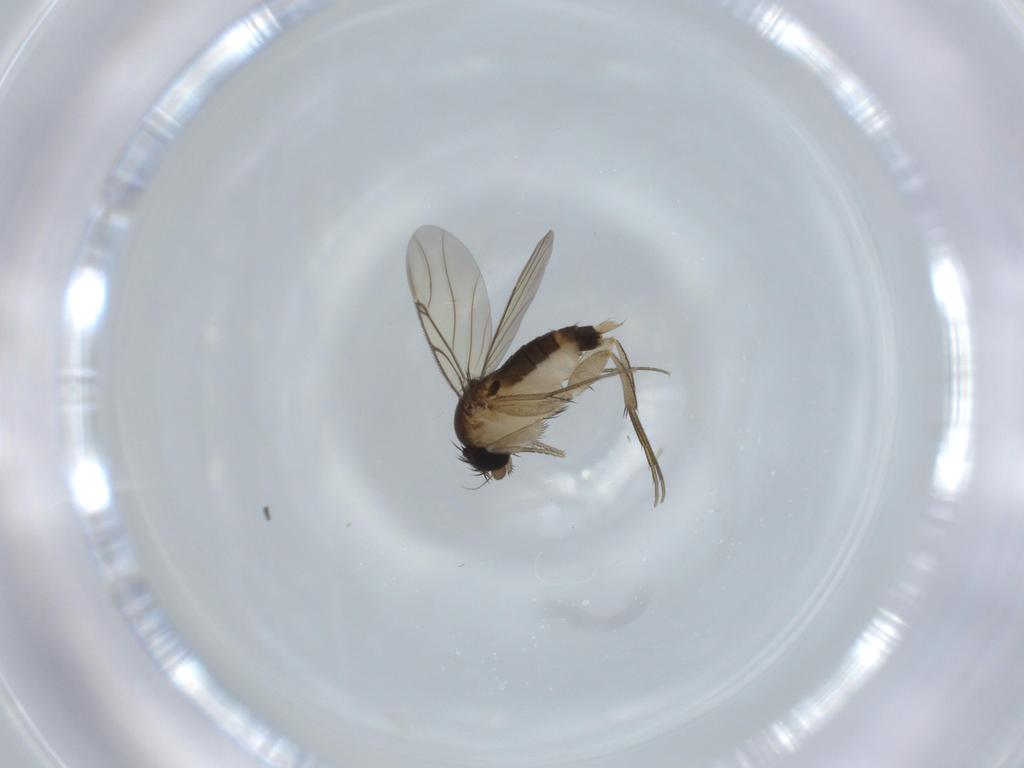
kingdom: Animalia
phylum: Arthropoda
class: Insecta
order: Diptera
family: Phoridae
